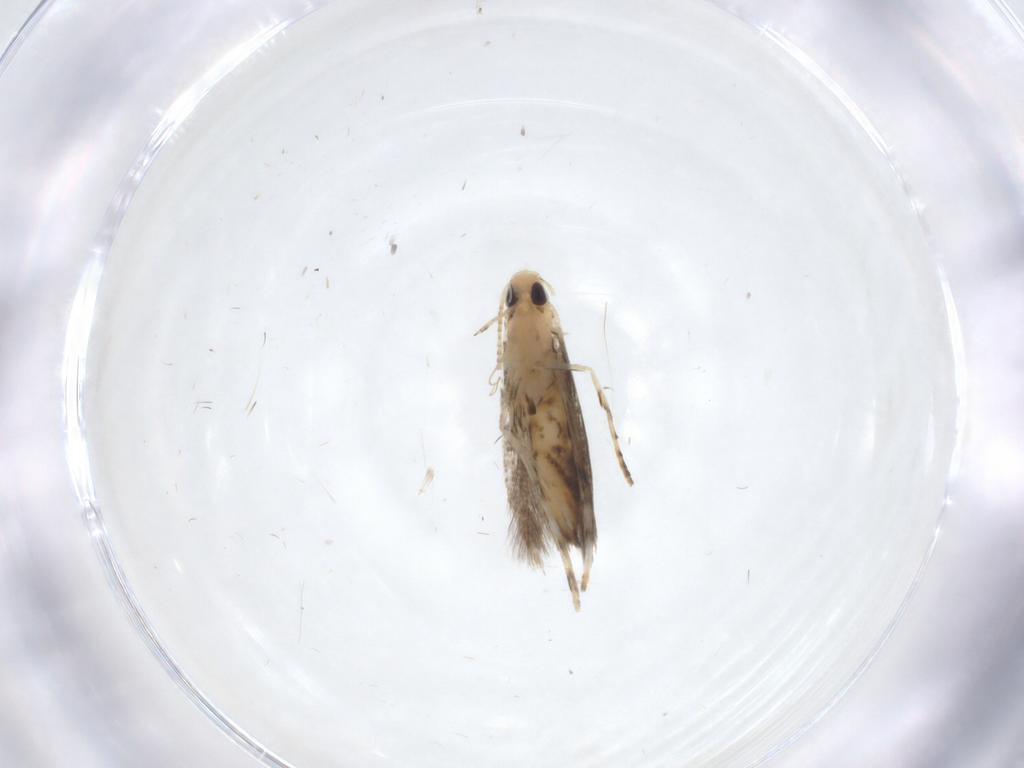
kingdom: Animalia
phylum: Arthropoda
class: Insecta
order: Lepidoptera
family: Gracillariidae
